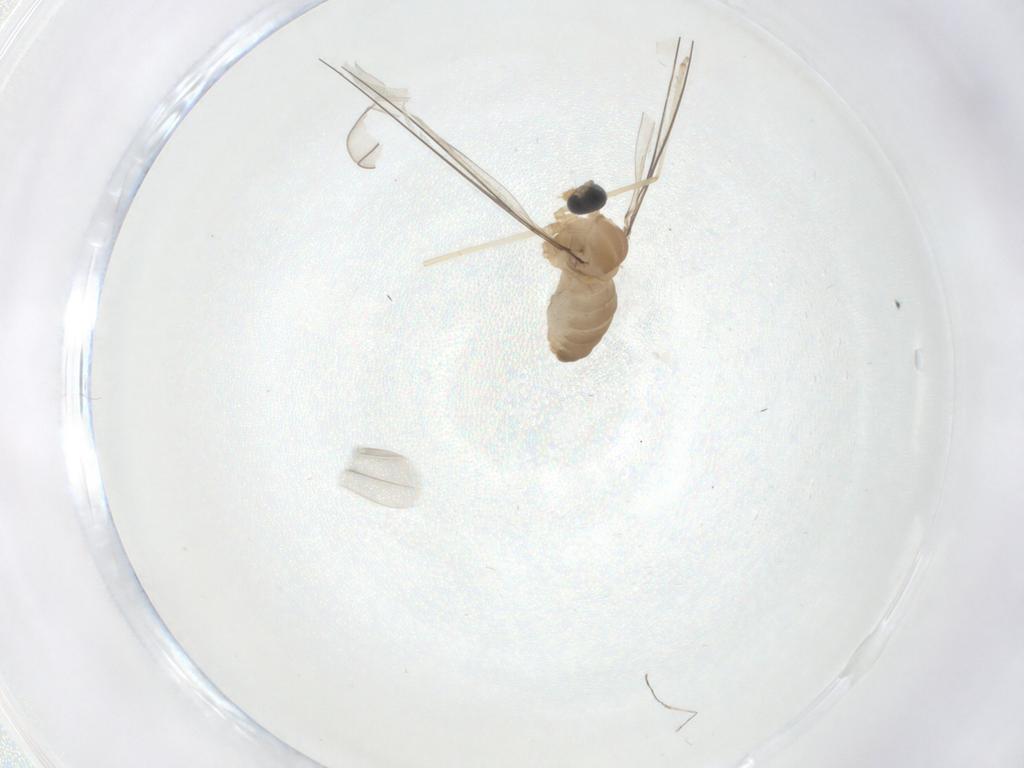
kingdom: Animalia
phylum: Arthropoda
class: Insecta
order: Diptera
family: Cecidomyiidae
